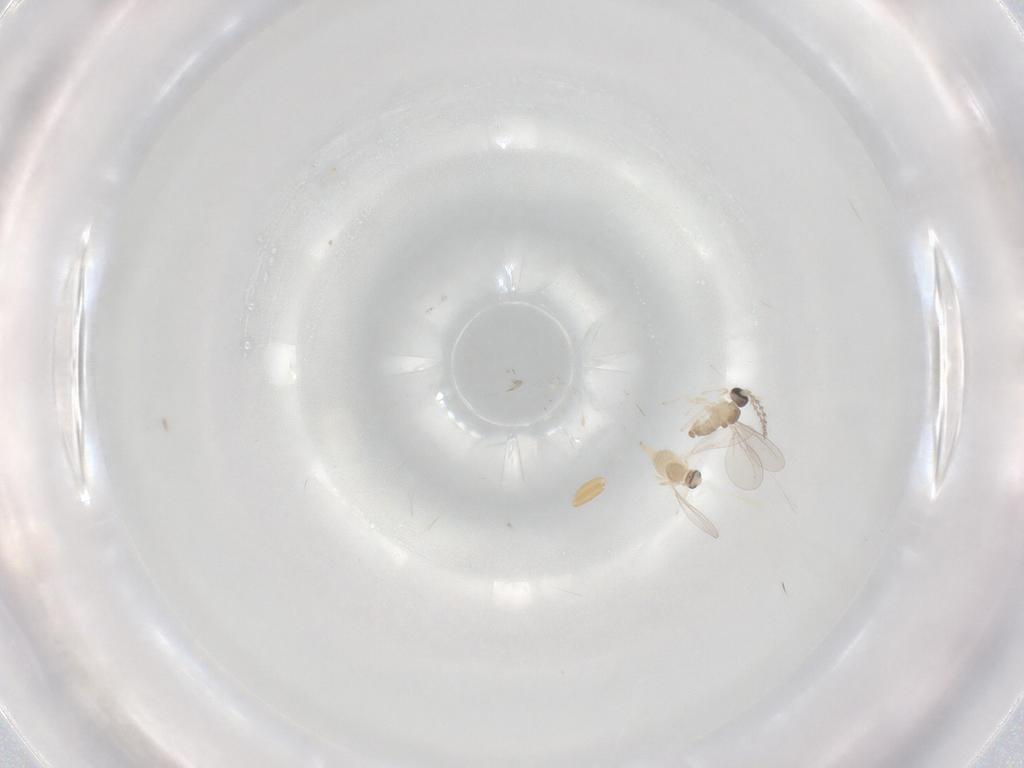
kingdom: Animalia
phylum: Arthropoda
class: Insecta
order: Diptera
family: Cecidomyiidae
